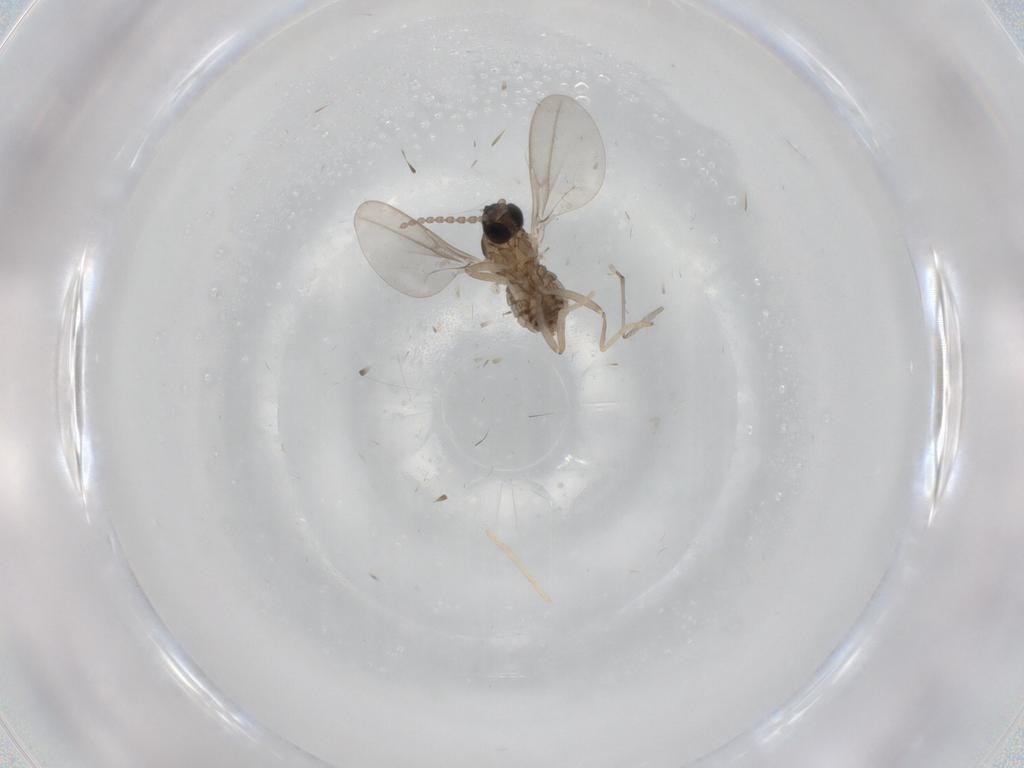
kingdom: Animalia
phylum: Arthropoda
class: Insecta
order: Diptera
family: Cecidomyiidae
